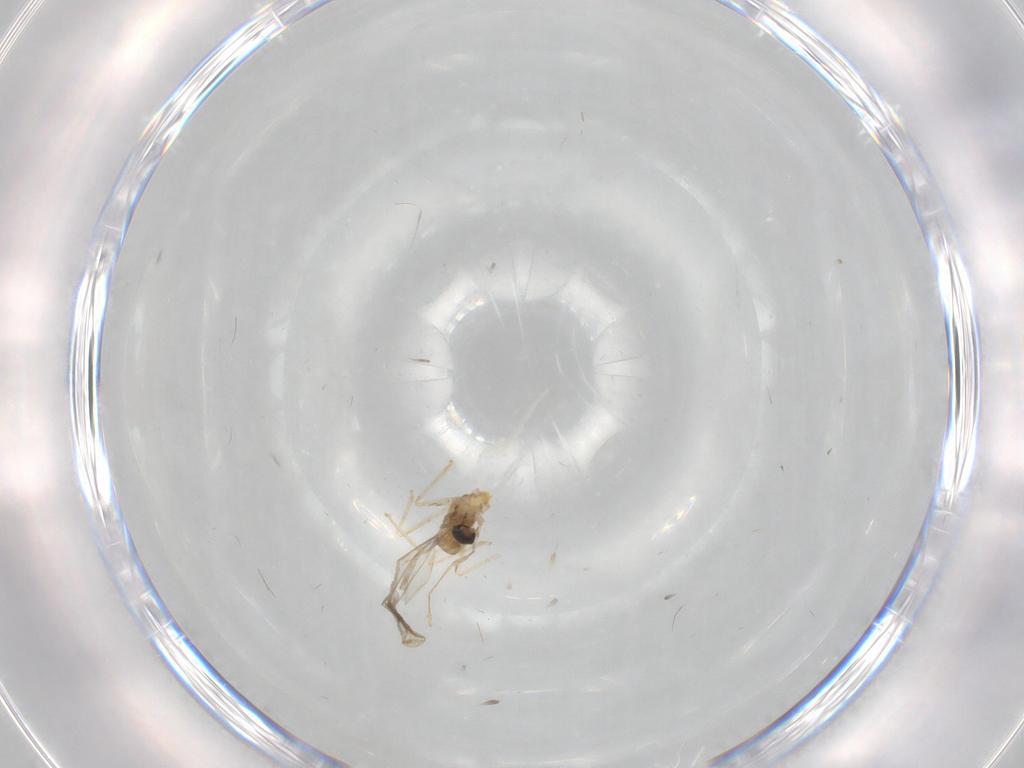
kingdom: Animalia
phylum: Arthropoda
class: Insecta
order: Diptera
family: Cecidomyiidae
